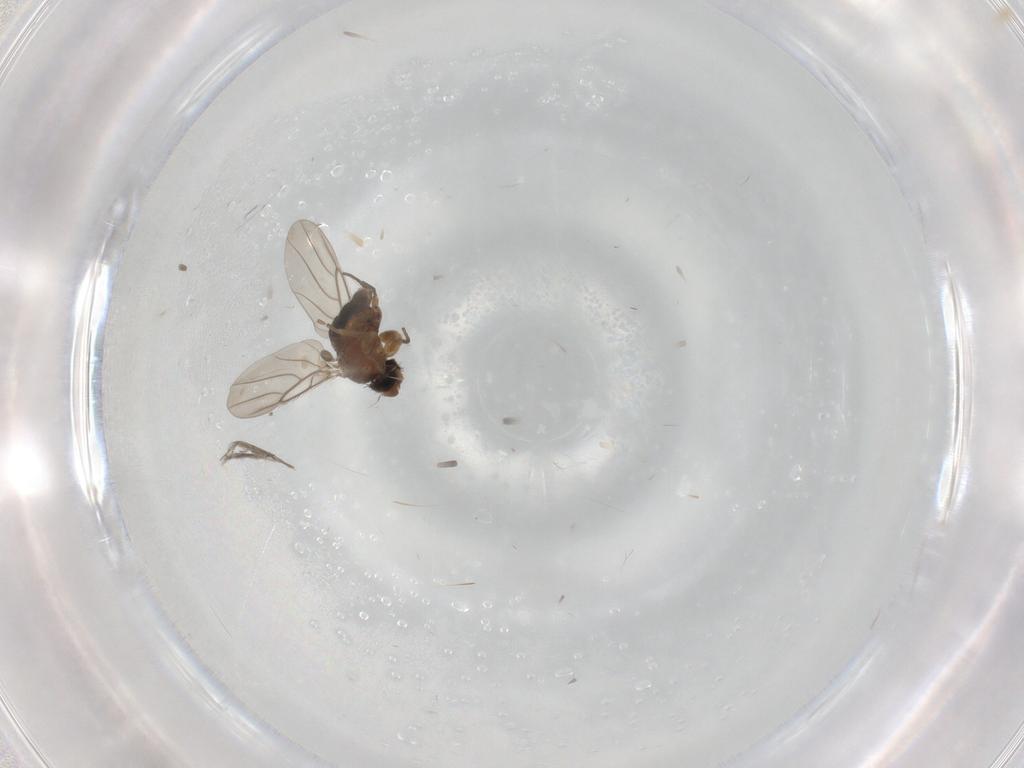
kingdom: Animalia
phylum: Arthropoda
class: Insecta
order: Diptera
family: Cecidomyiidae
